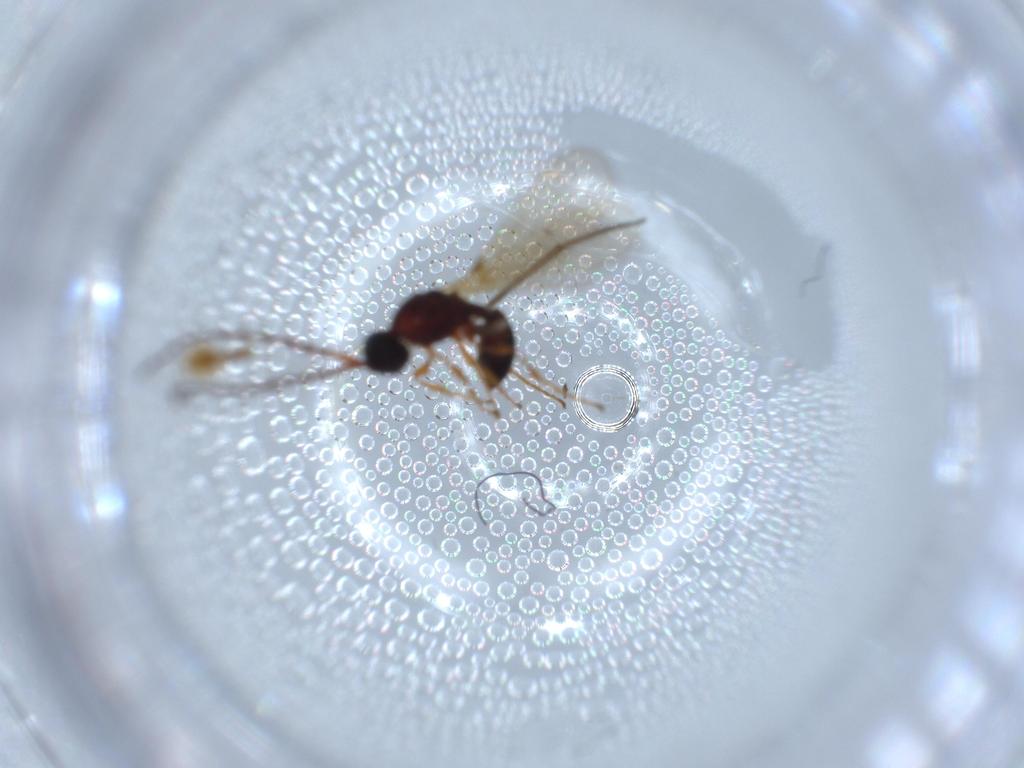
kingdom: Animalia
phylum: Arthropoda
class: Insecta
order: Hymenoptera
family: Diapriidae
